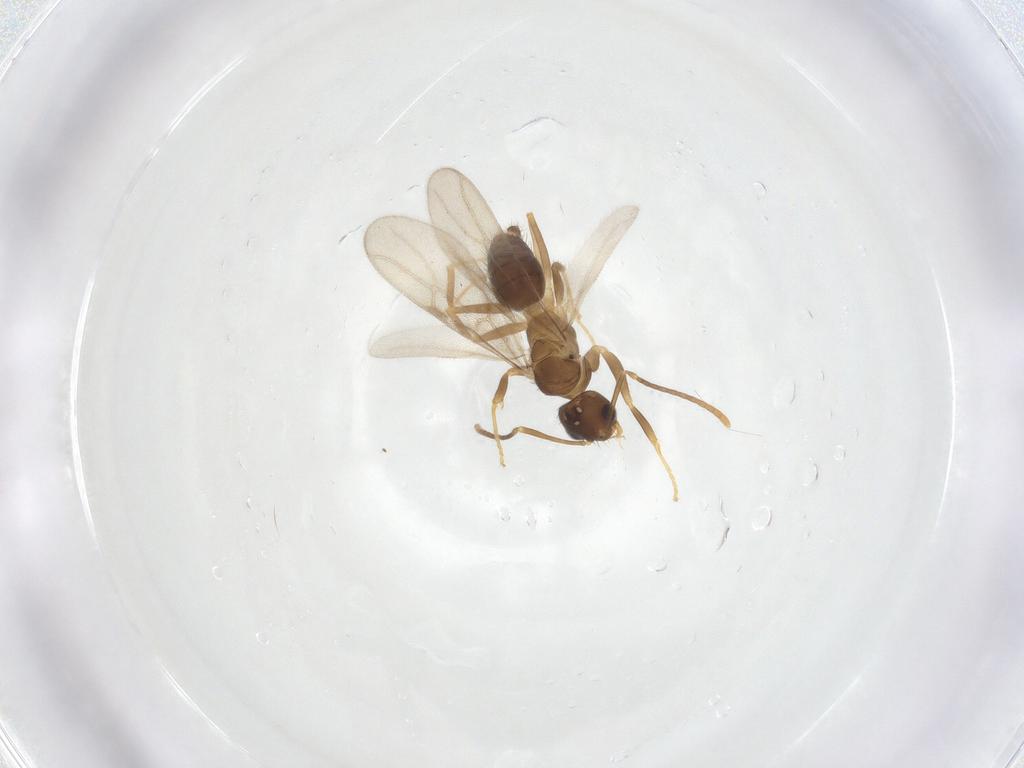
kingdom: Animalia
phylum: Arthropoda
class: Insecta
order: Hymenoptera
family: Formicidae
